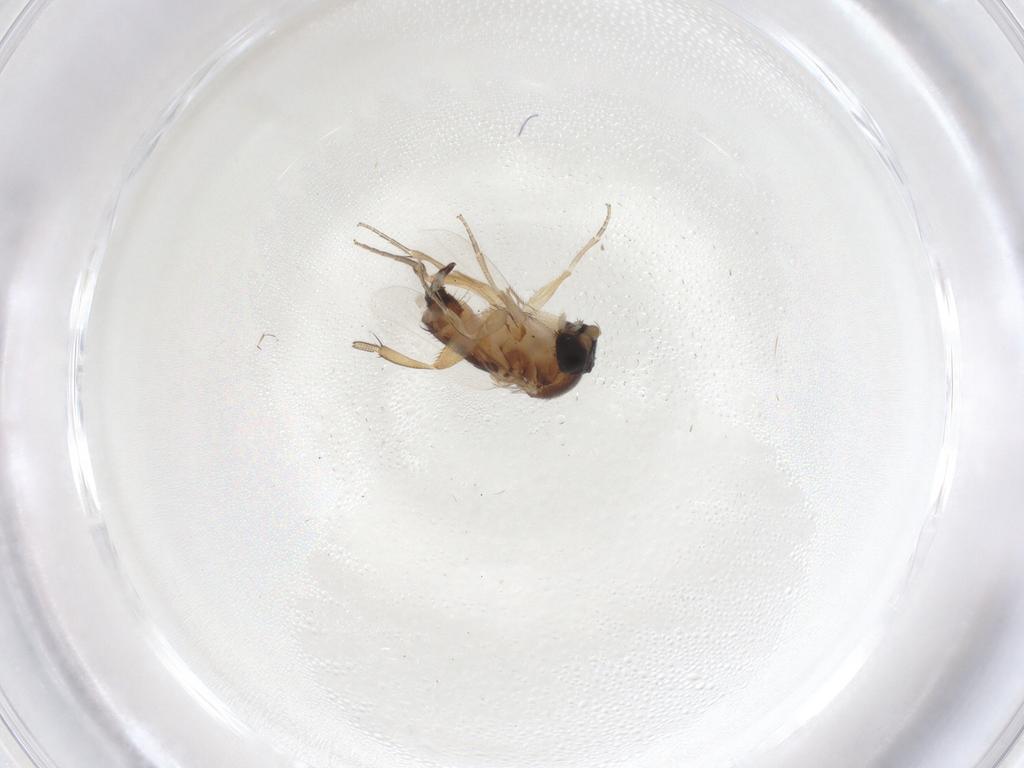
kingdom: Animalia
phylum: Arthropoda
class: Insecta
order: Diptera
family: Phoridae
